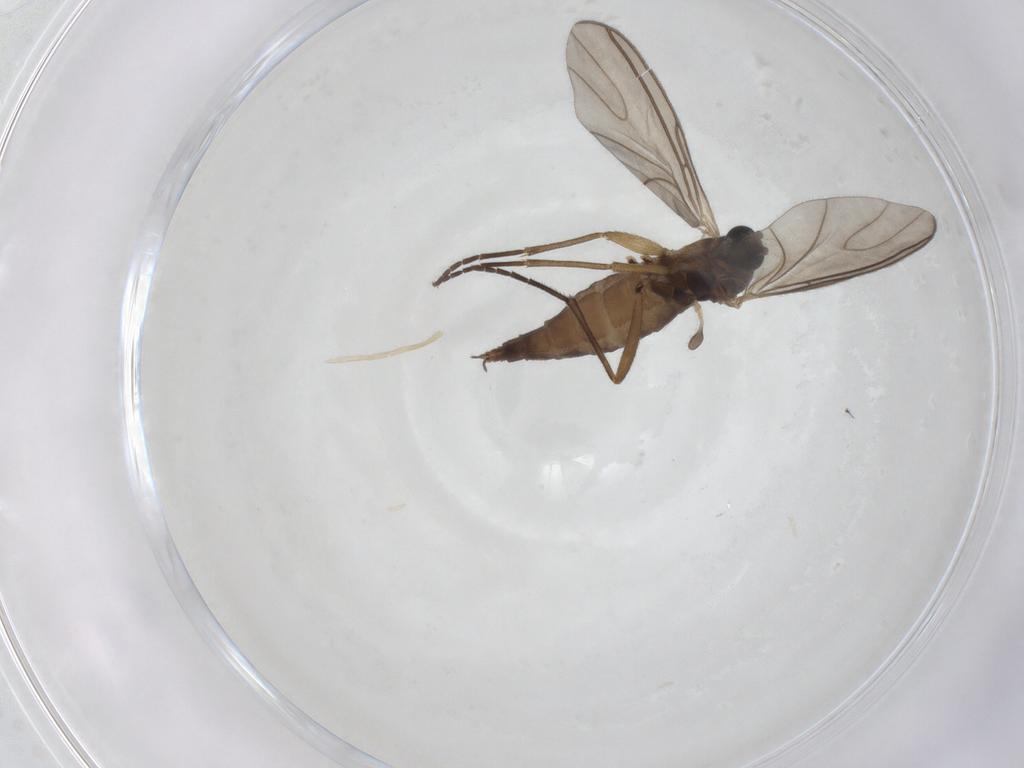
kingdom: Animalia
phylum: Arthropoda
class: Insecta
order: Diptera
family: Sciaridae
